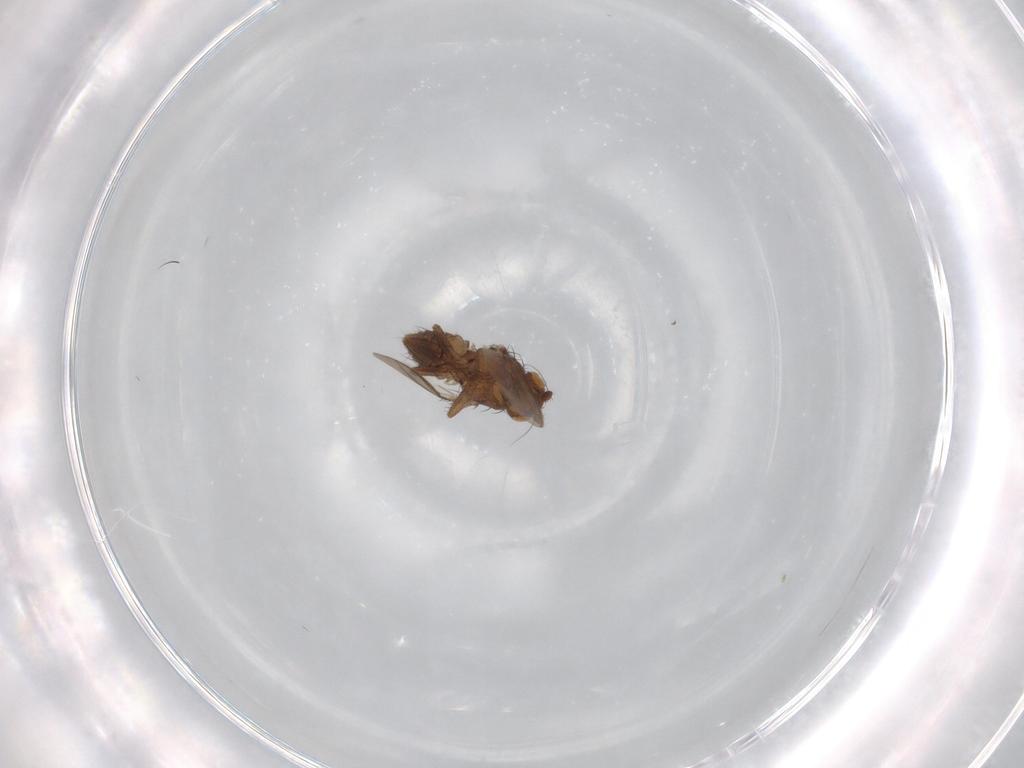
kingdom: Animalia
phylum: Arthropoda
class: Insecta
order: Diptera
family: Sphaeroceridae
